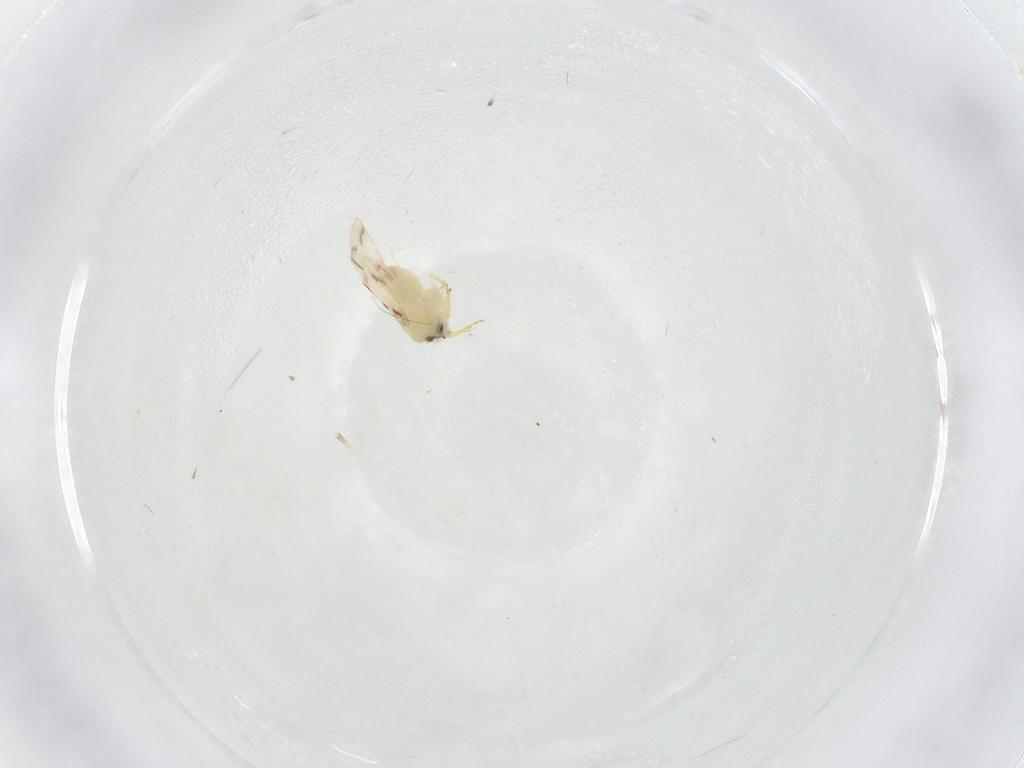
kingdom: Animalia
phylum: Arthropoda
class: Insecta
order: Hemiptera
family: Aleyrodidae
